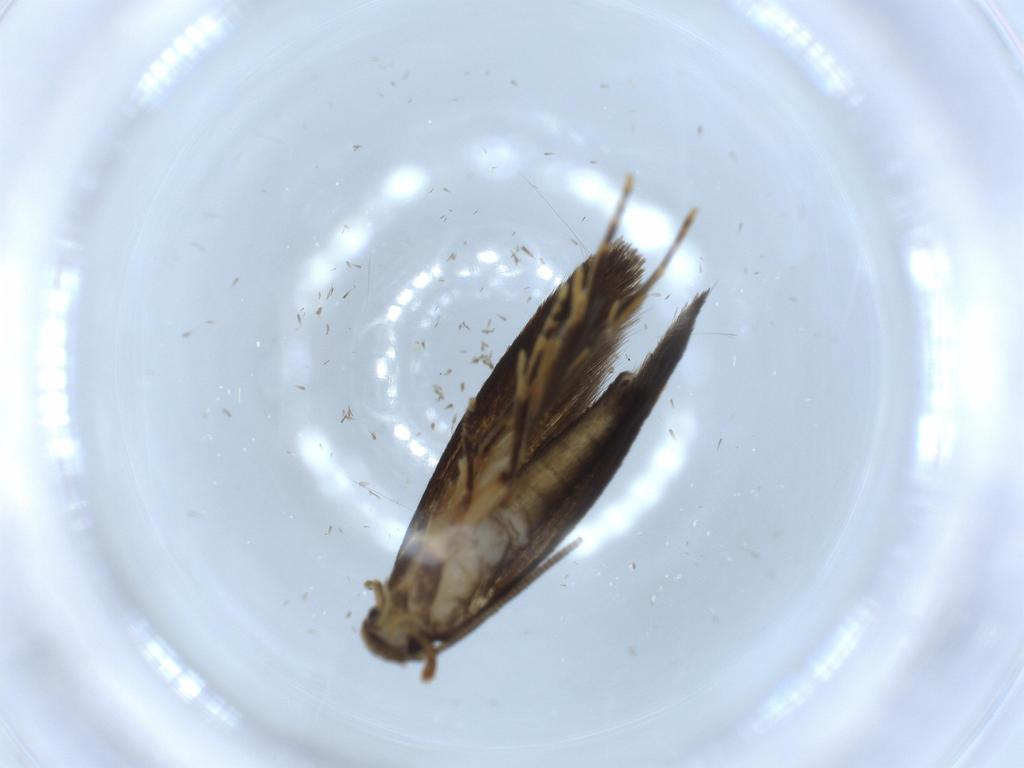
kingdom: Animalia
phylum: Arthropoda
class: Insecta
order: Lepidoptera
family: Tineidae
